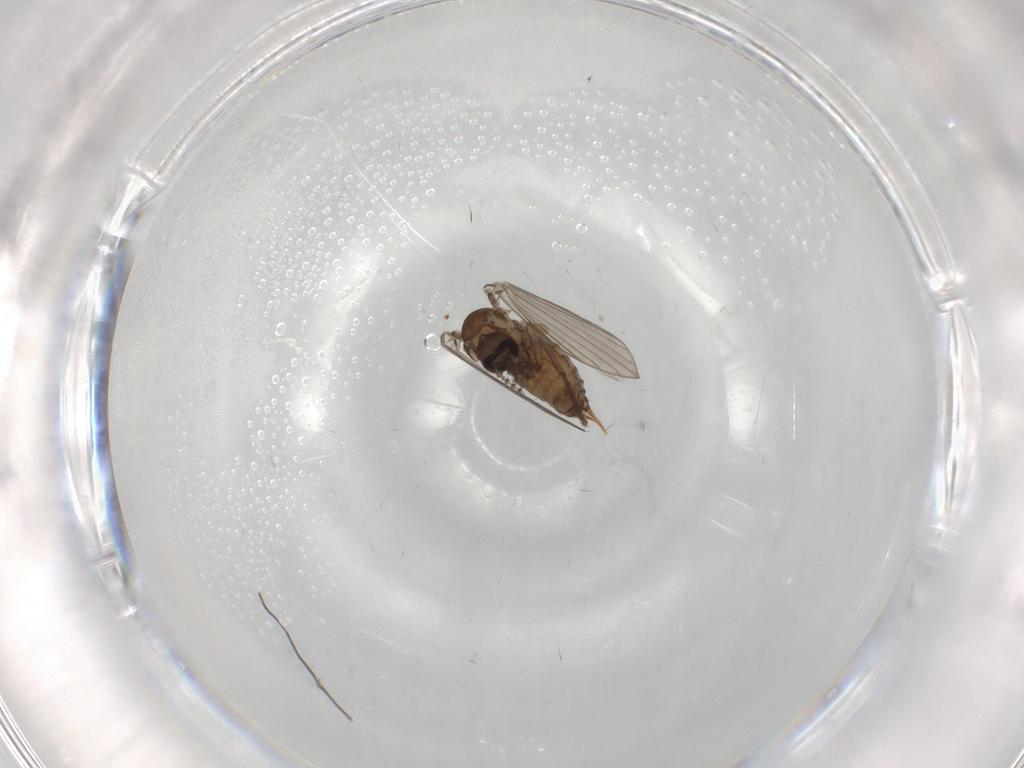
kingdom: Animalia
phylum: Arthropoda
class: Insecta
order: Diptera
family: Psychodidae
